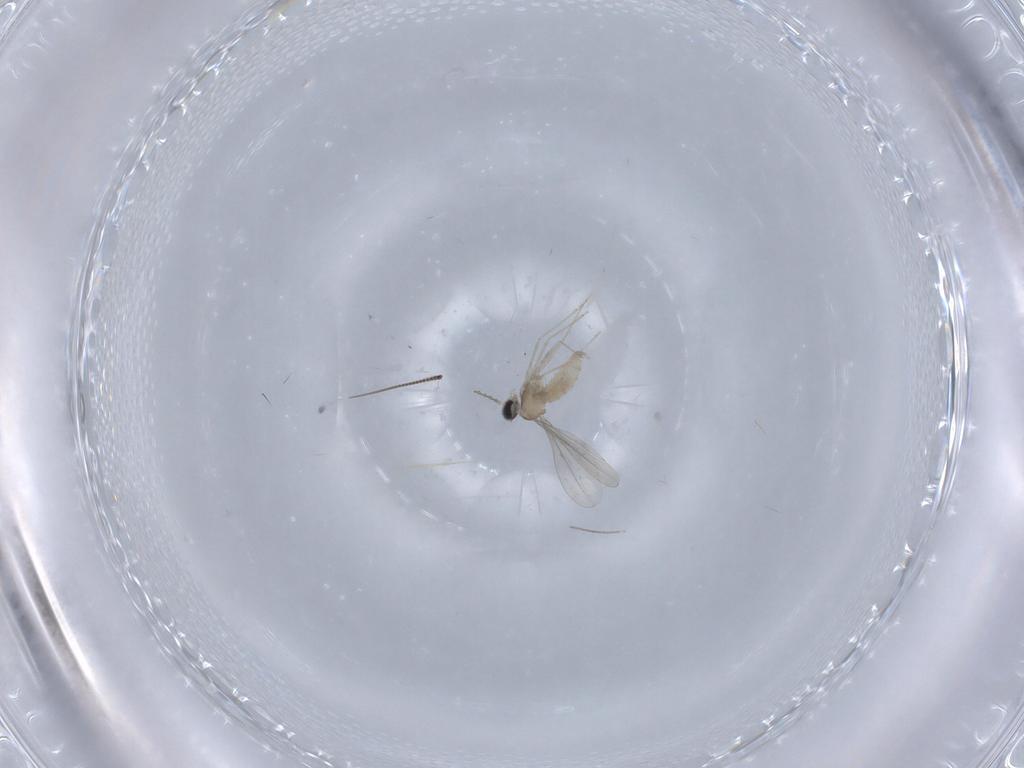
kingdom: Animalia
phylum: Arthropoda
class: Insecta
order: Diptera
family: Cecidomyiidae
